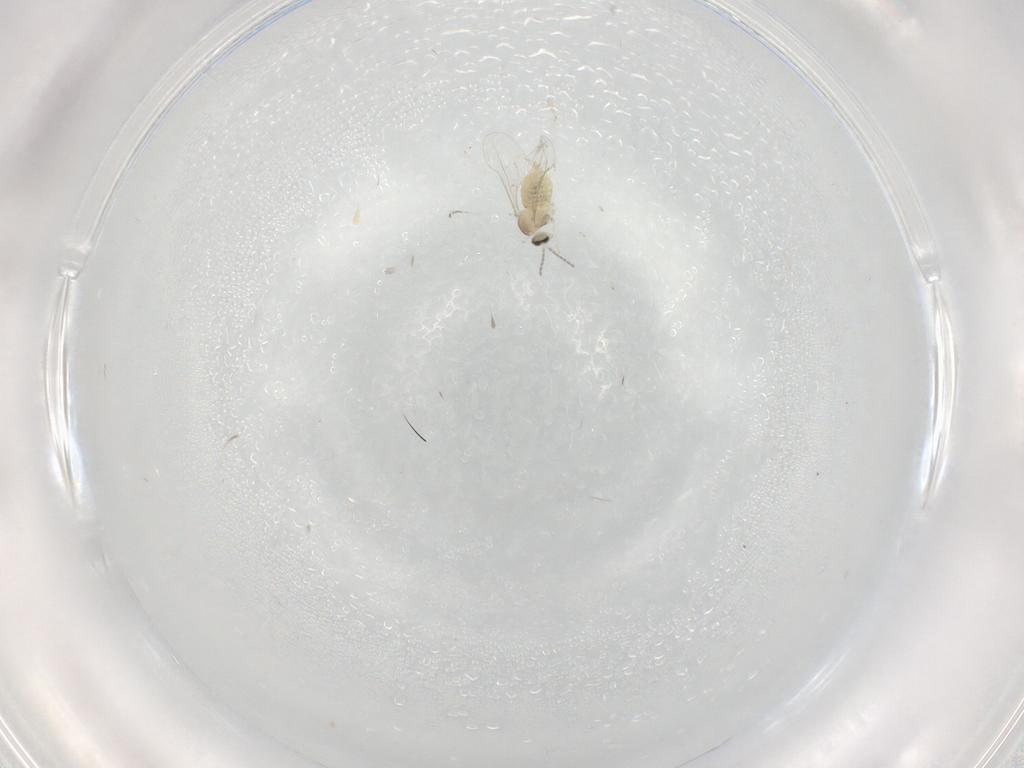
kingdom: Animalia
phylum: Arthropoda
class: Insecta
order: Diptera
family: Cecidomyiidae
